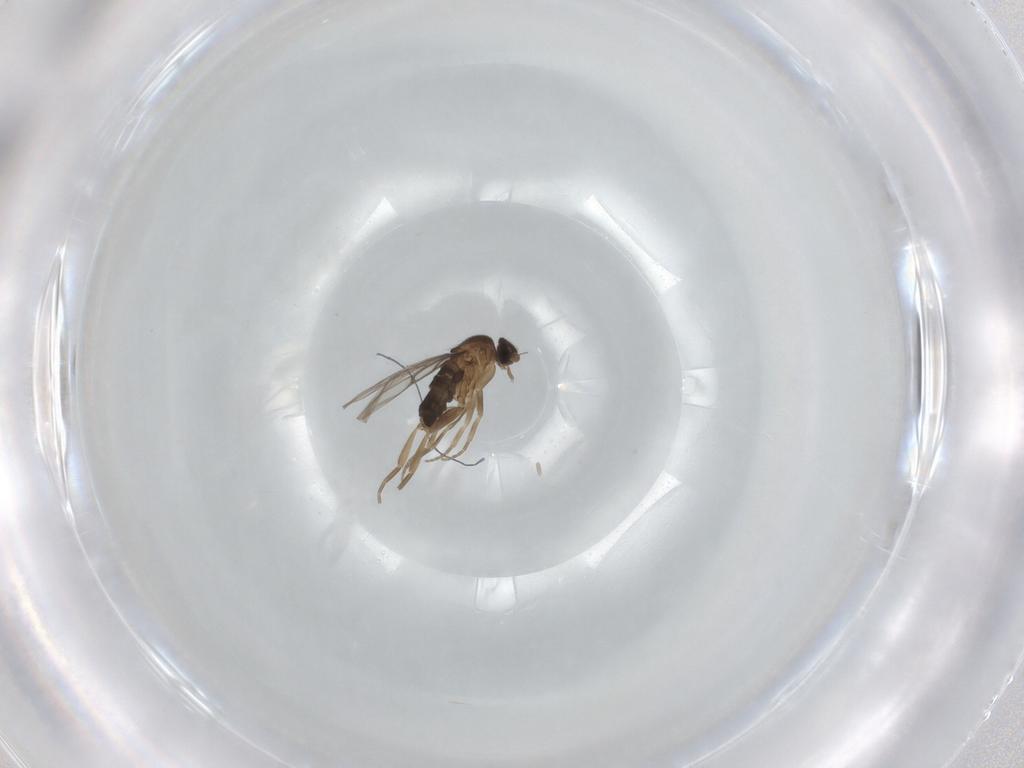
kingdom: Animalia
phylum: Arthropoda
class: Insecta
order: Diptera
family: Phoridae
